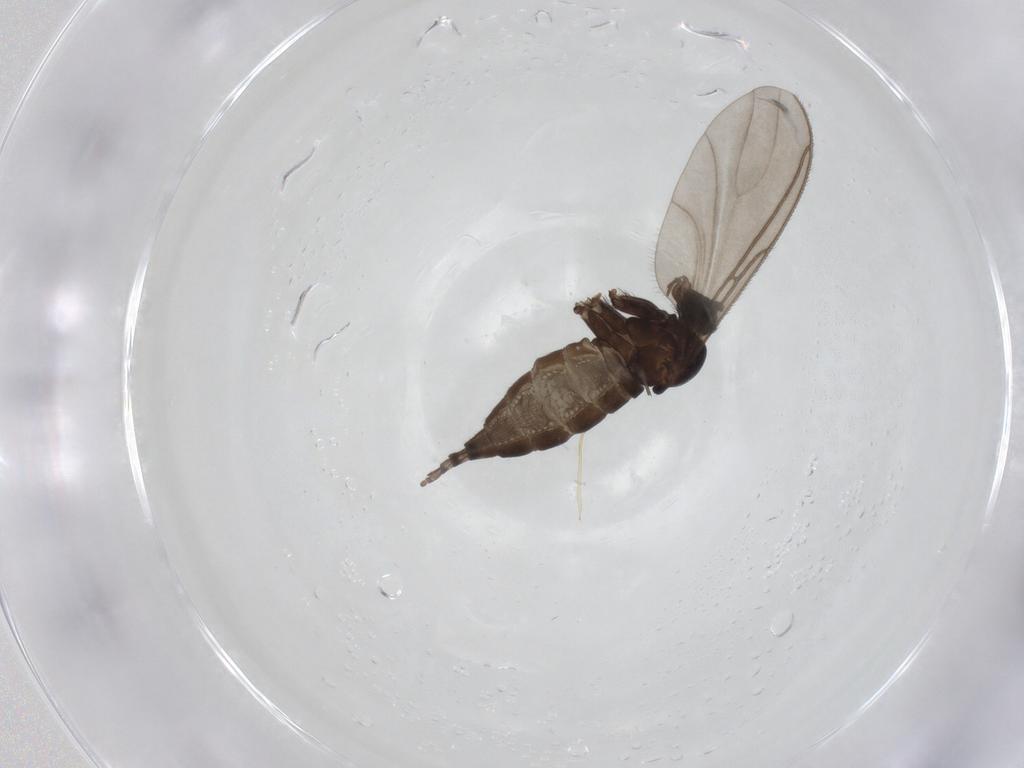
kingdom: Animalia
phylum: Arthropoda
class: Insecta
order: Diptera
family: Sciaridae
